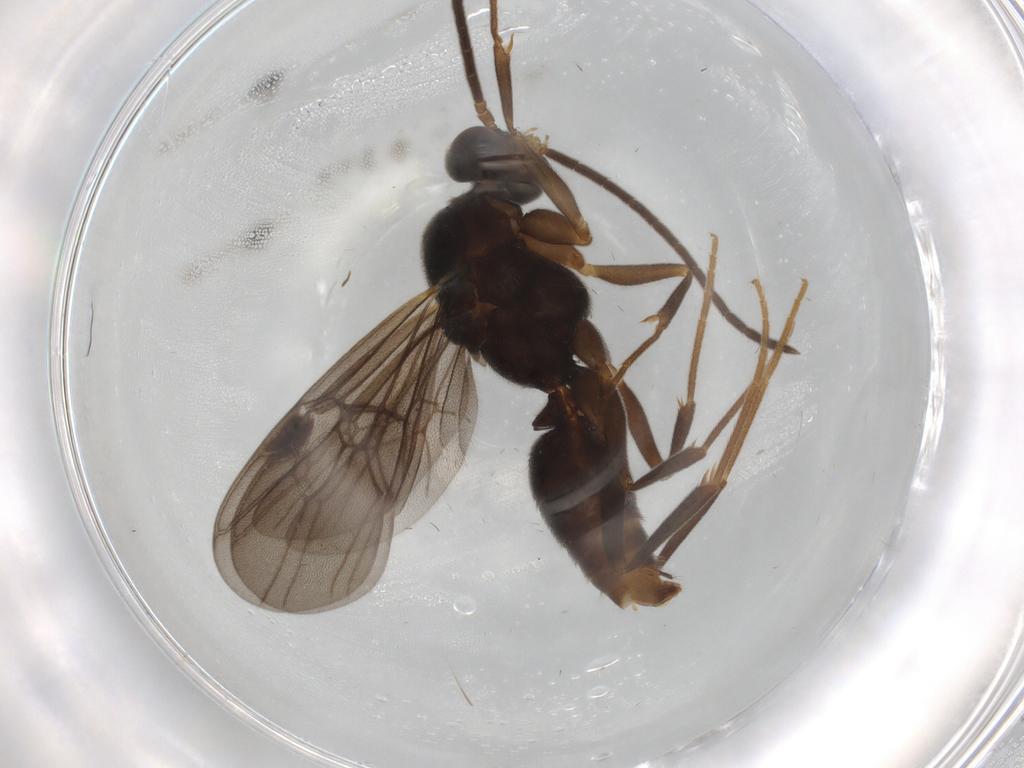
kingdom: Animalia
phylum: Arthropoda
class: Insecta
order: Hymenoptera
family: Formicidae
